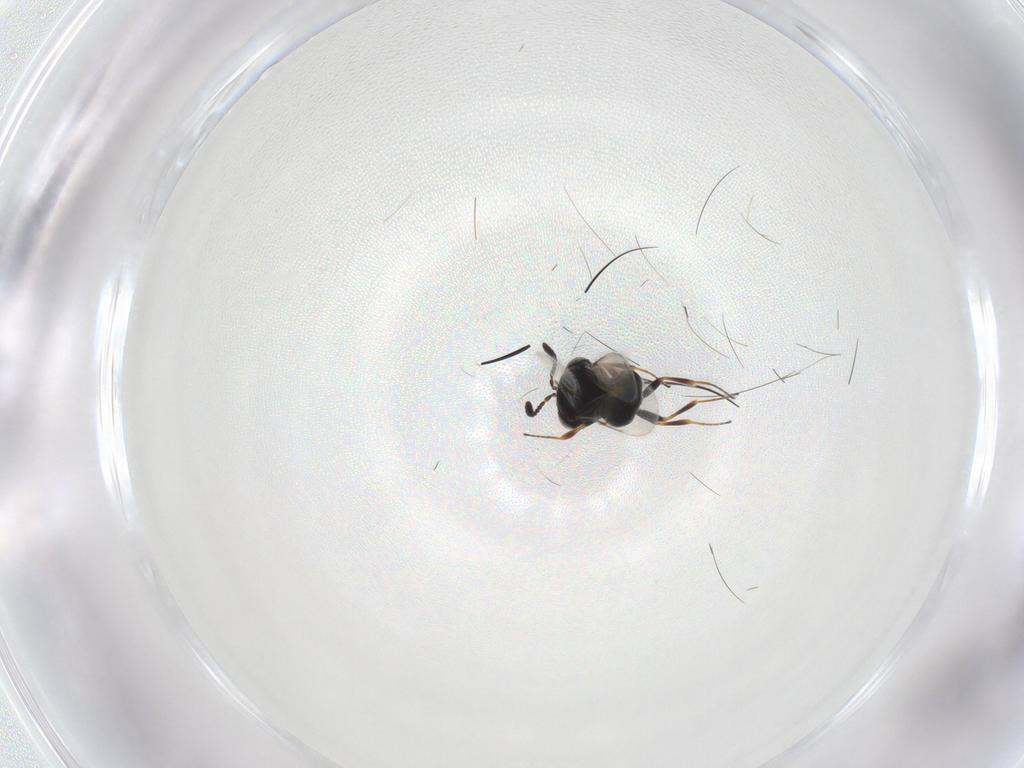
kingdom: Animalia
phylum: Arthropoda
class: Insecta
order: Hymenoptera
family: Scelionidae
